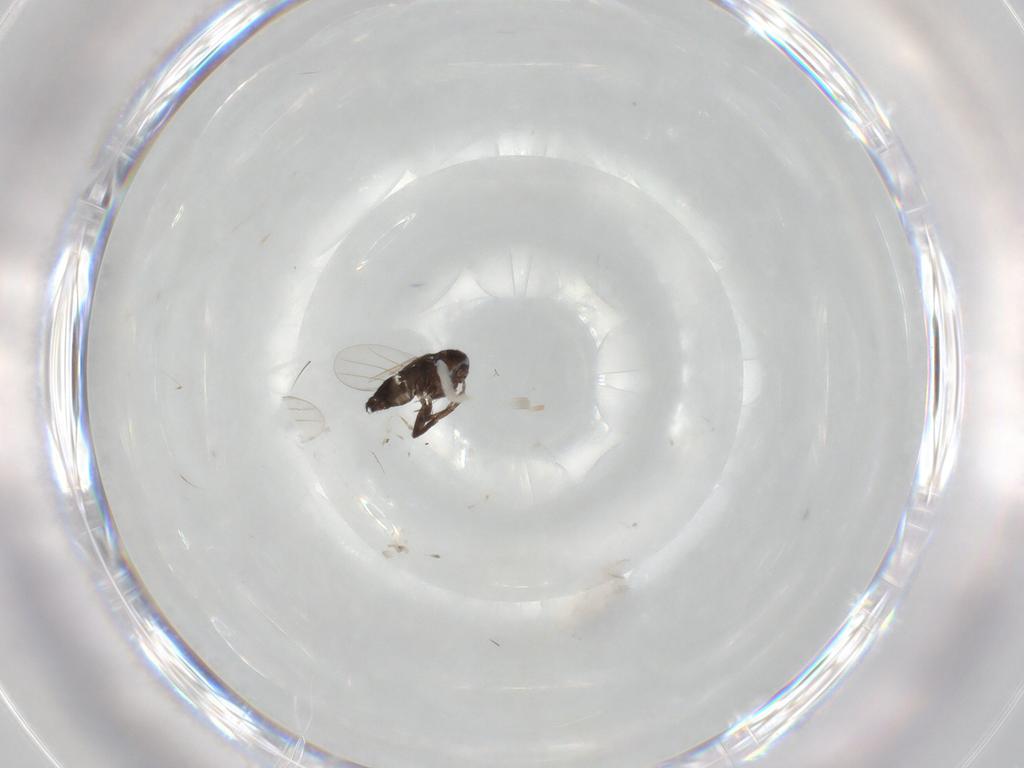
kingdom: Animalia
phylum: Arthropoda
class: Insecta
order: Diptera
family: Phoridae
